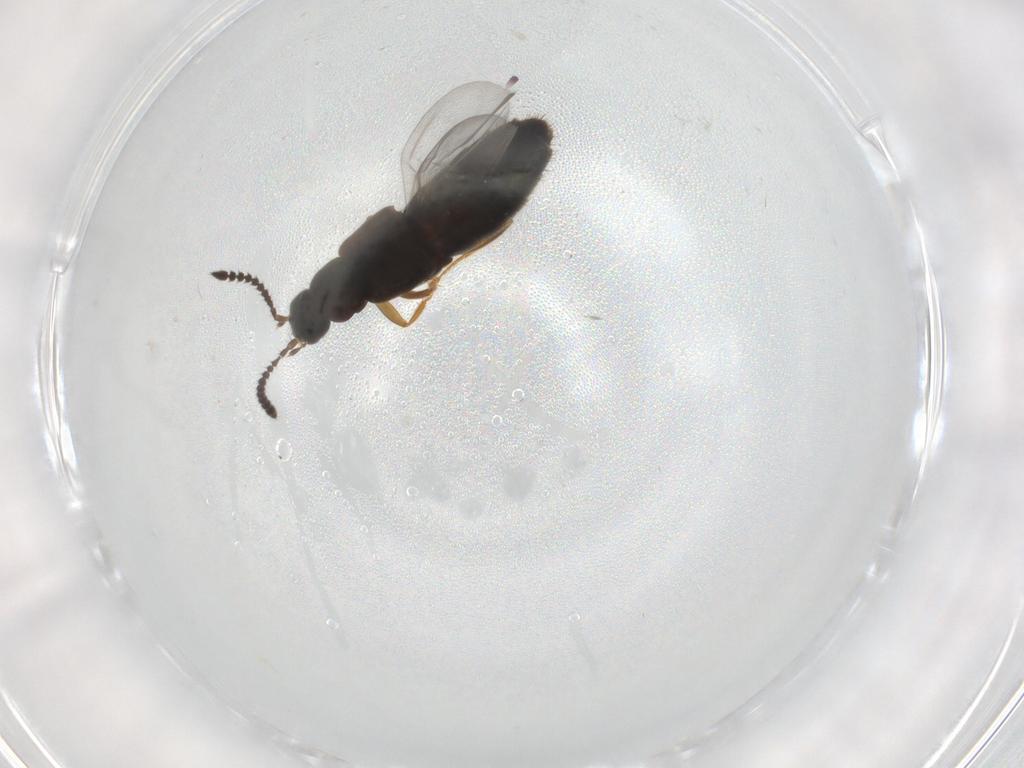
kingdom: Animalia
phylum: Arthropoda
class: Insecta
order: Coleoptera
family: Staphylinidae
